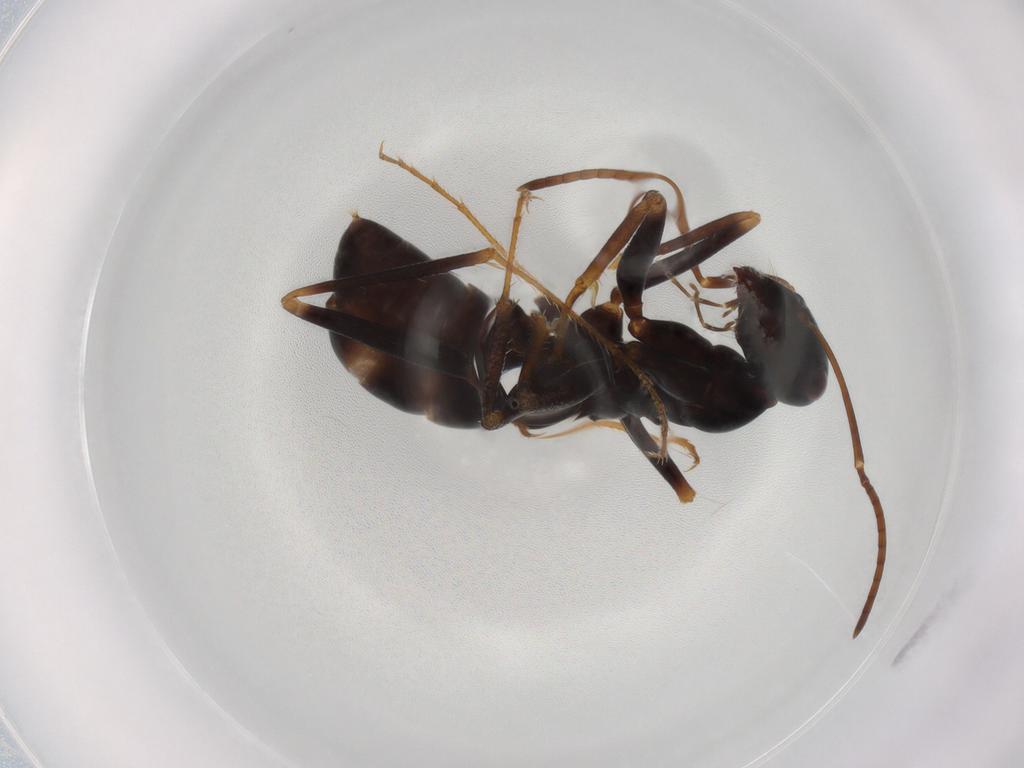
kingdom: Animalia
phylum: Arthropoda
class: Insecta
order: Hymenoptera
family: Formicidae
